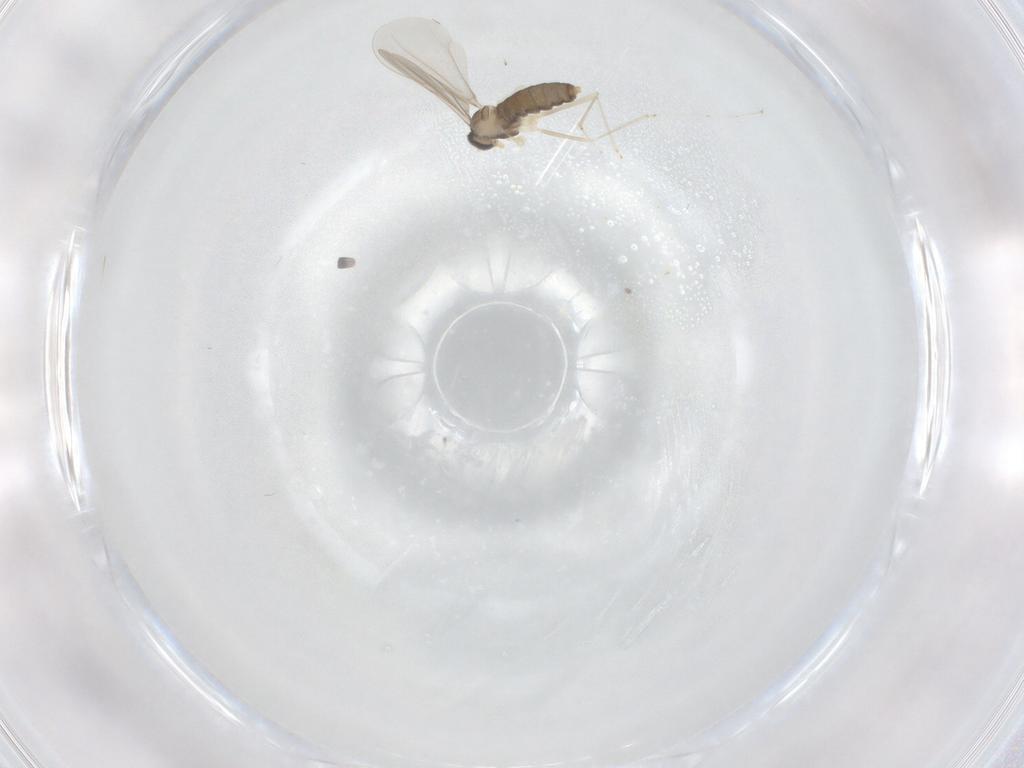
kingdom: Animalia
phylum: Arthropoda
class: Insecta
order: Diptera
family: Cecidomyiidae
